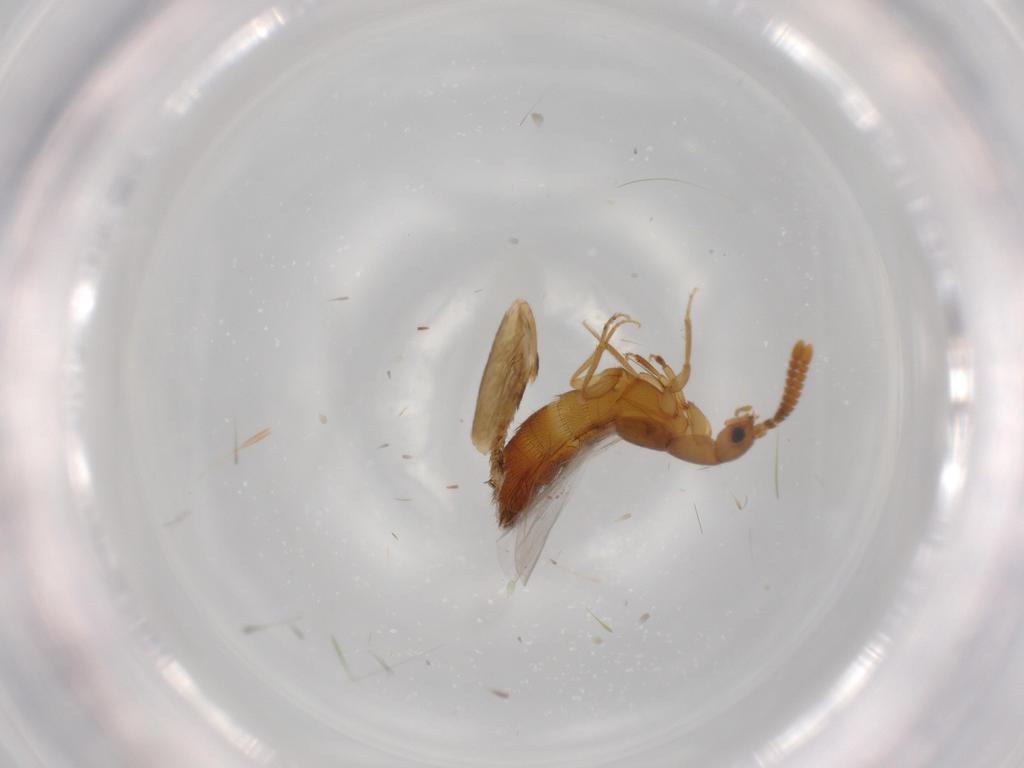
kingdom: Animalia
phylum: Arthropoda
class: Insecta
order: Coleoptera
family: Staphylinidae
